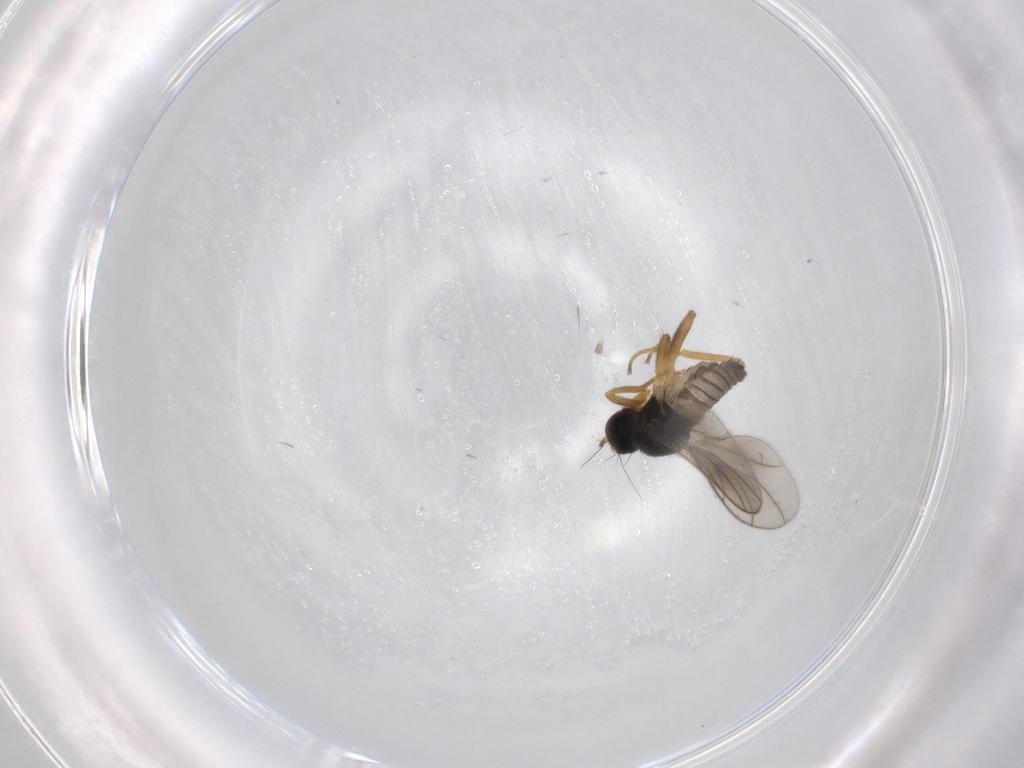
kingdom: Animalia
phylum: Arthropoda
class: Insecta
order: Diptera
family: Hybotidae
